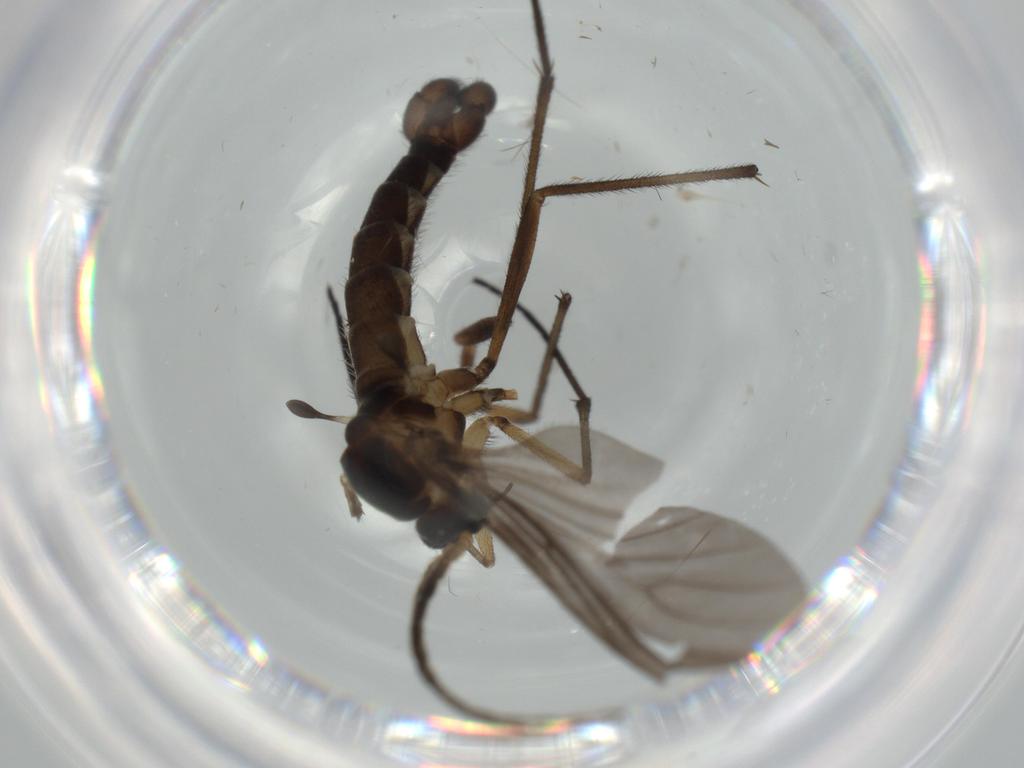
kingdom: Animalia
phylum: Arthropoda
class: Insecta
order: Diptera
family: Sciaridae
